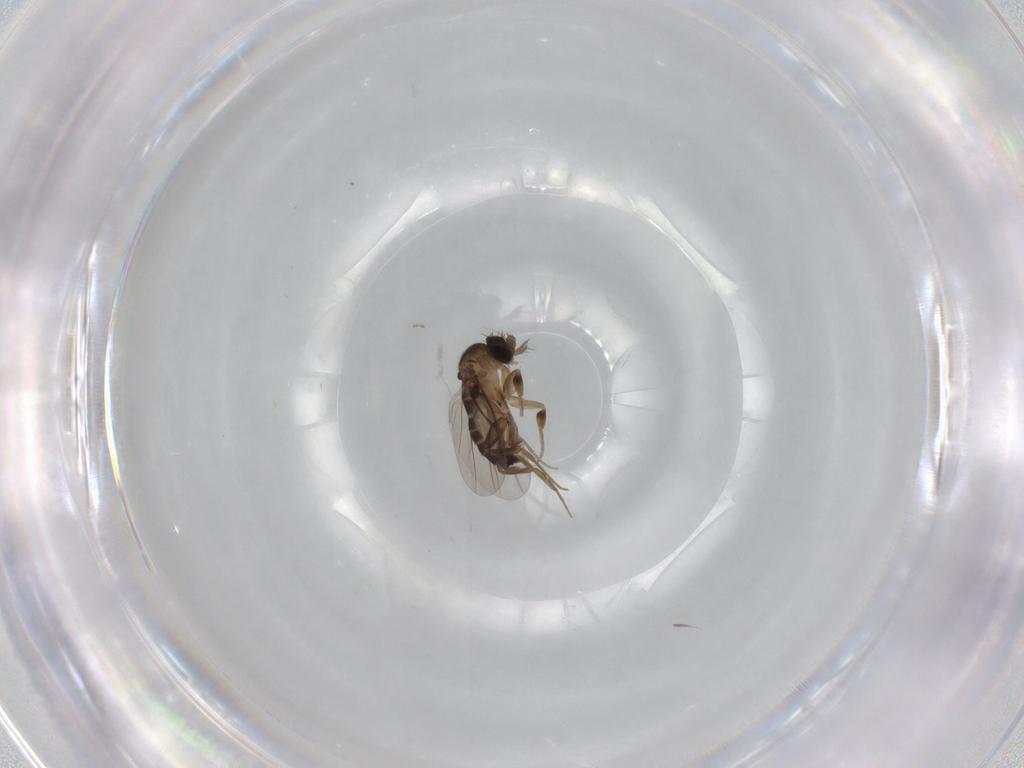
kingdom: Animalia
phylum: Arthropoda
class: Insecta
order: Diptera
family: Phoridae
